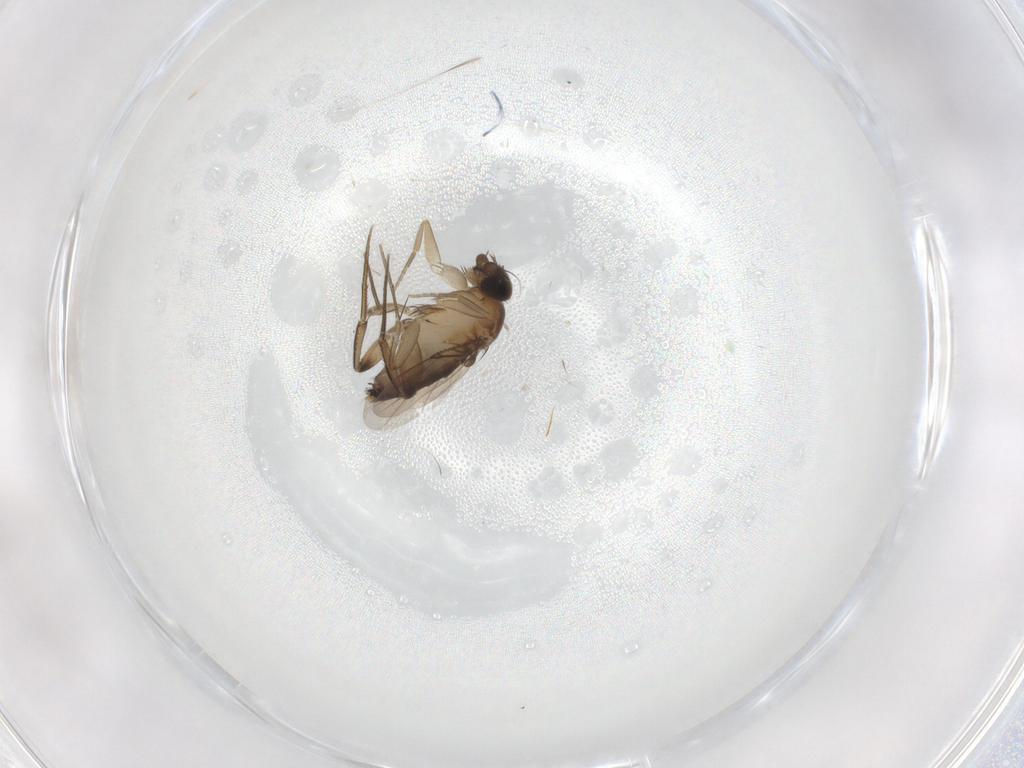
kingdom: Animalia
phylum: Arthropoda
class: Insecta
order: Diptera
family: Phoridae
